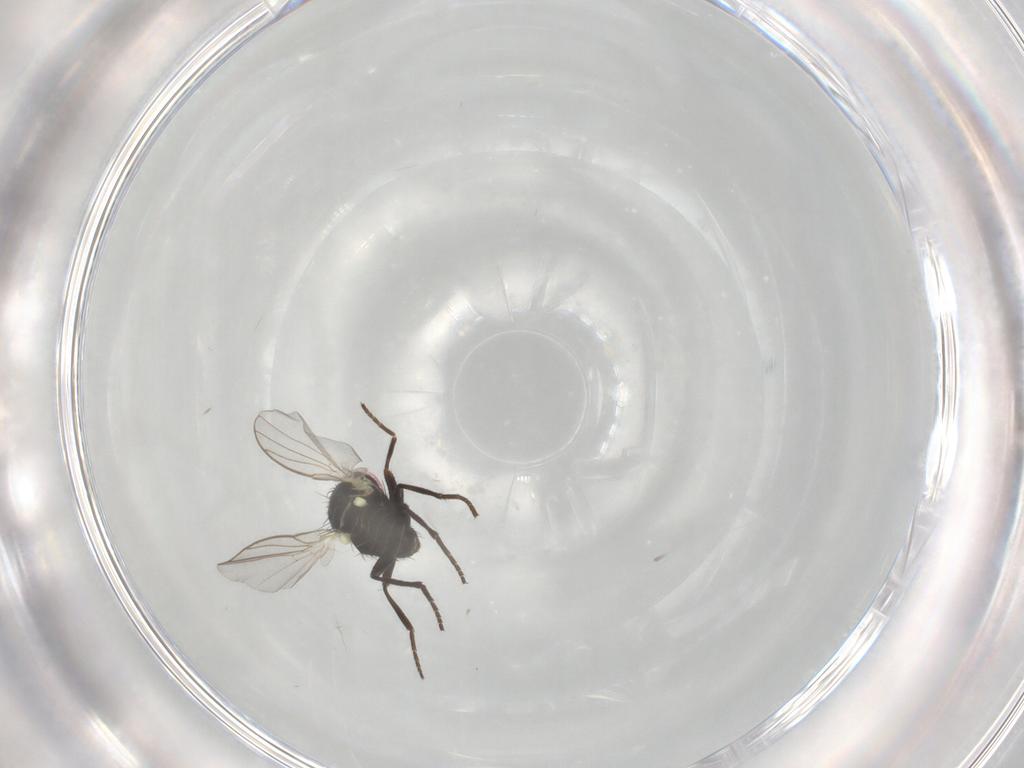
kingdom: Animalia
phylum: Arthropoda
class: Insecta
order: Diptera
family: Agromyzidae
